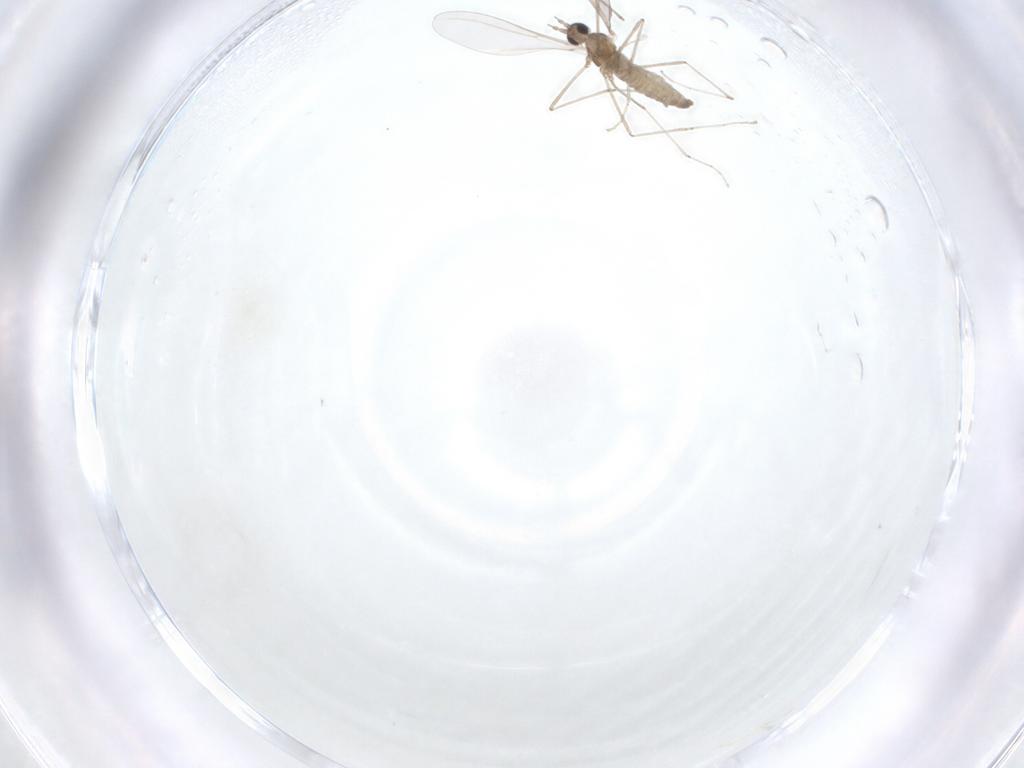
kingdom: Animalia
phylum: Arthropoda
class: Insecta
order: Diptera
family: Cecidomyiidae
